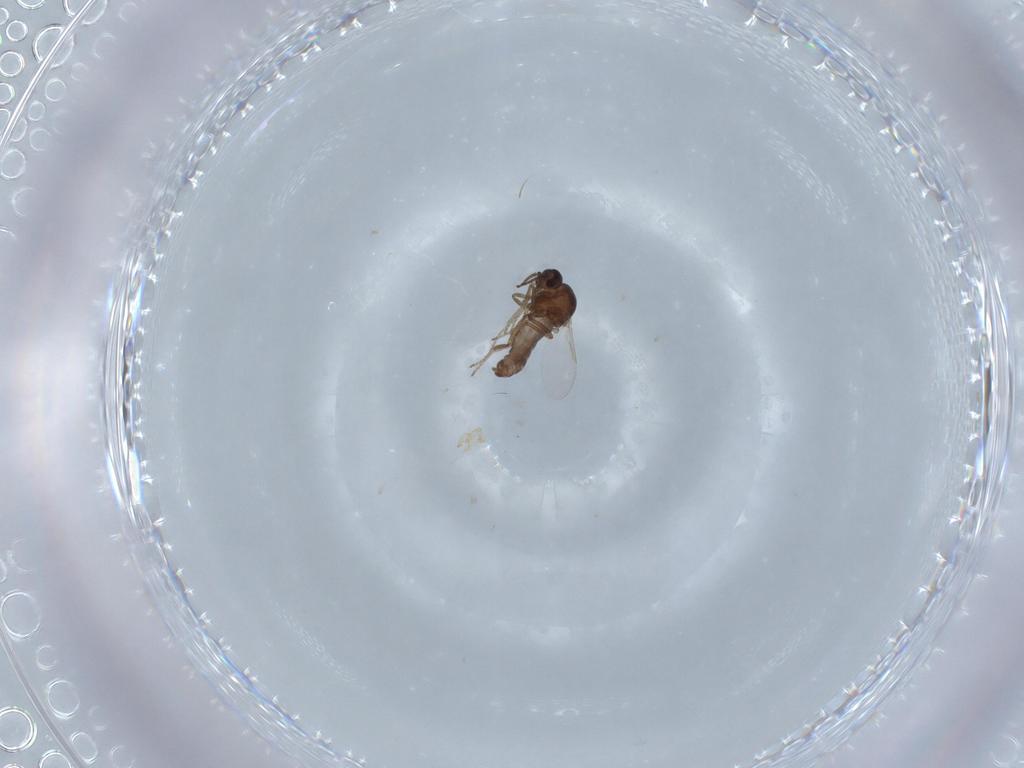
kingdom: Animalia
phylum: Arthropoda
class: Insecta
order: Diptera
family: Ceratopogonidae
